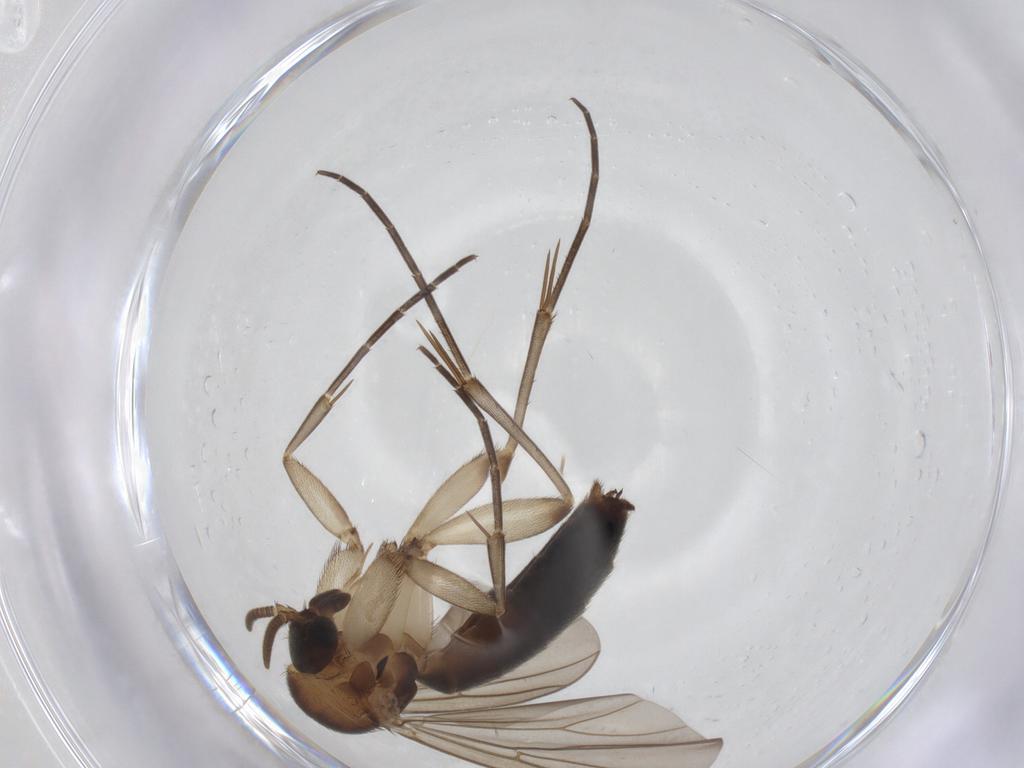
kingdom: Animalia
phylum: Arthropoda
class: Insecta
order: Diptera
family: Mycetophilidae
